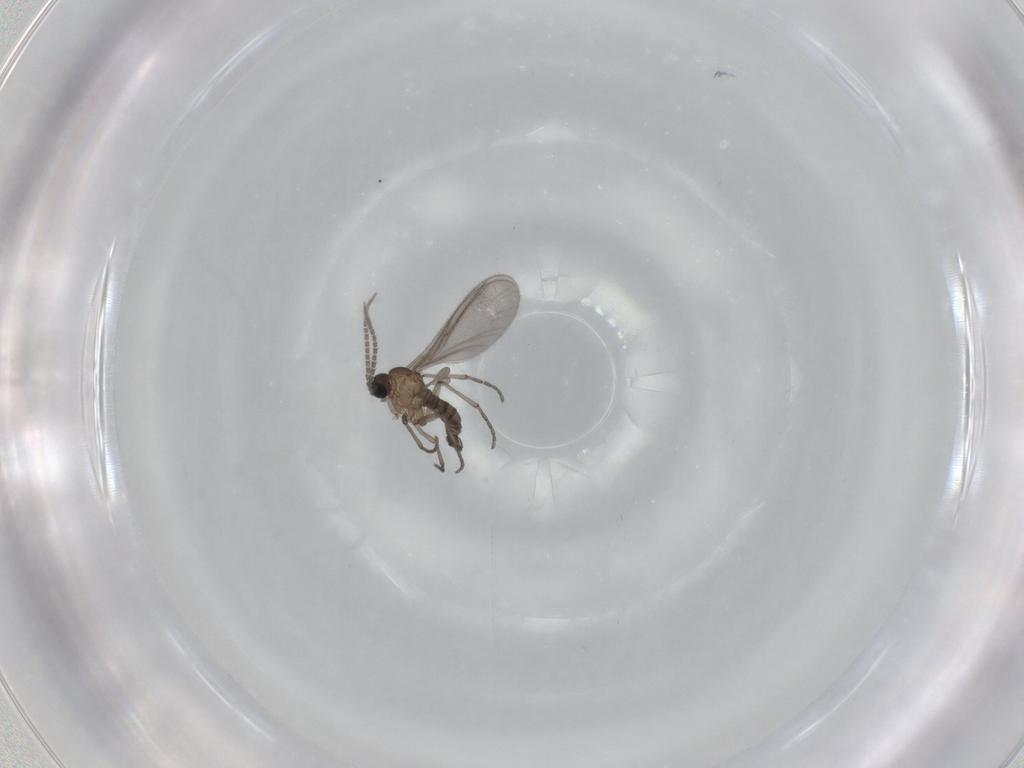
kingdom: Animalia
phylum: Arthropoda
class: Insecta
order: Diptera
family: Sciaridae
